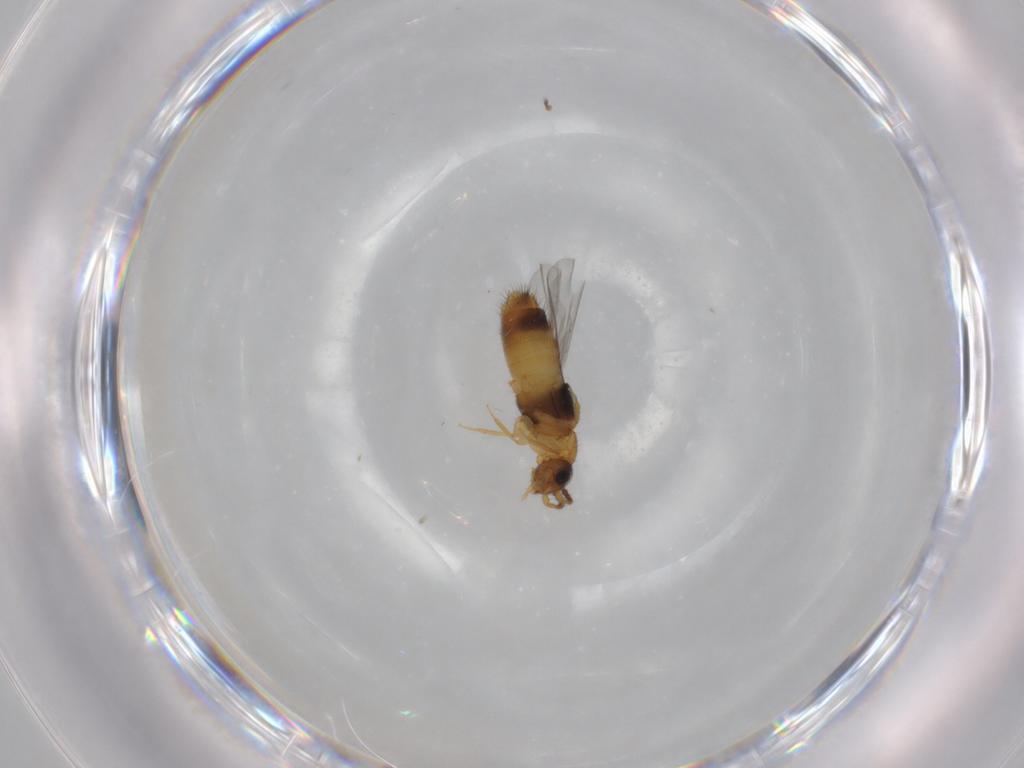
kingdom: Animalia
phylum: Arthropoda
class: Insecta
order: Coleoptera
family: Staphylinidae
